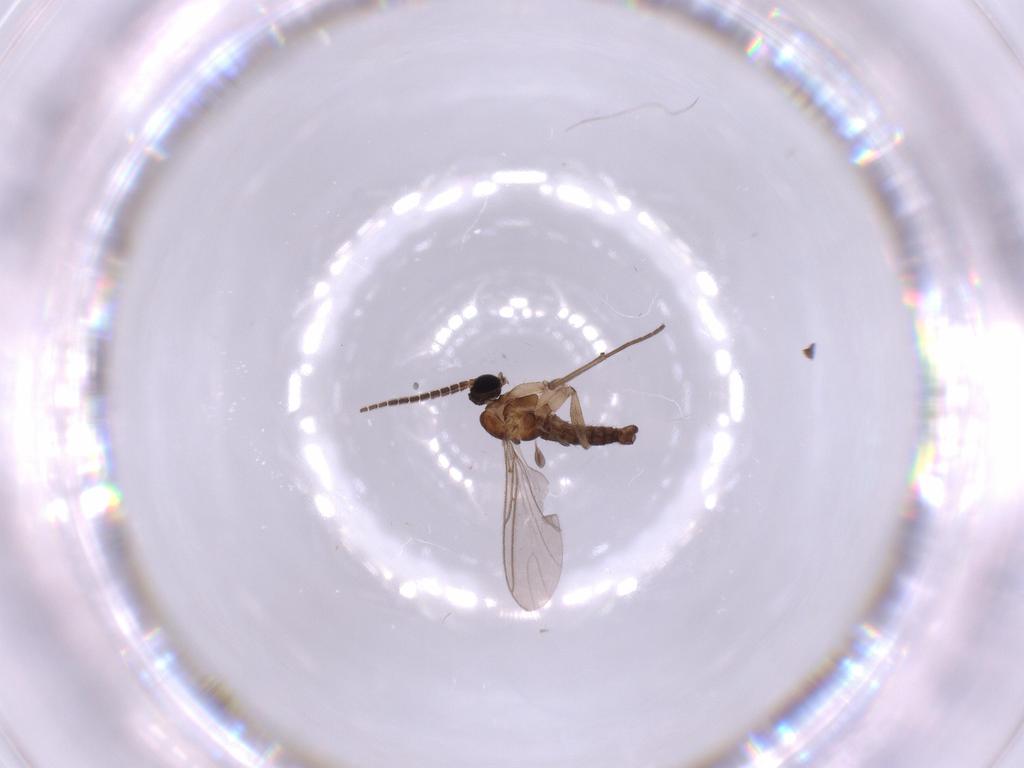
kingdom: Animalia
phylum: Arthropoda
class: Insecta
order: Diptera
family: Sciaridae
